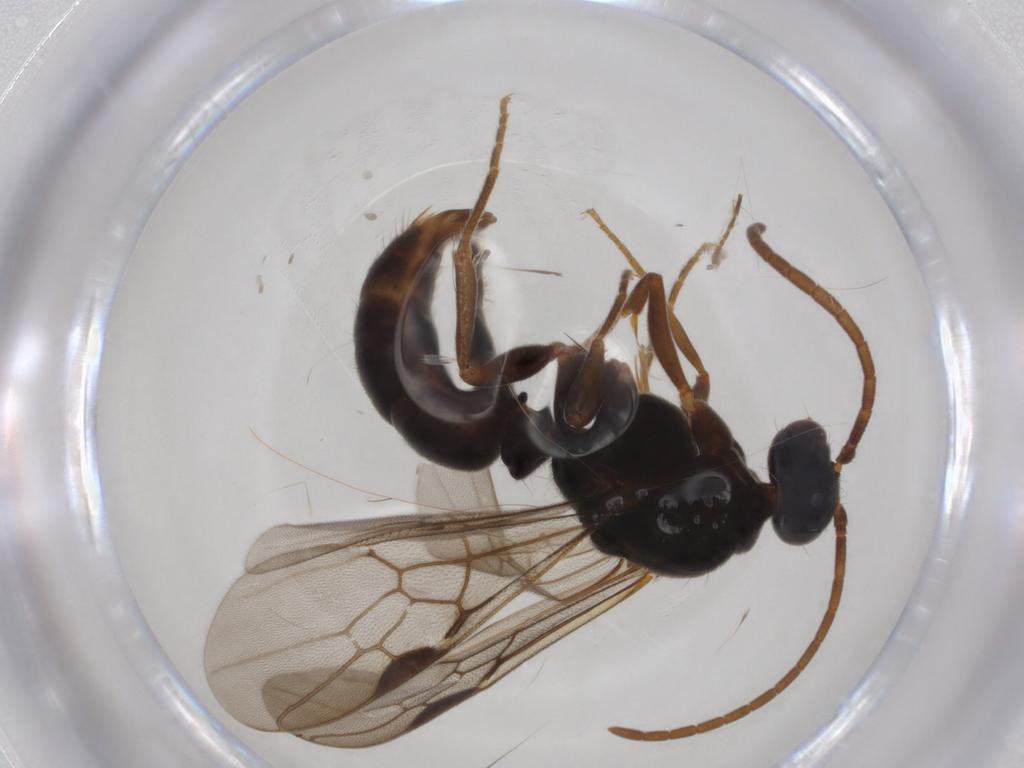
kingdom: Animalia
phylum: Arthropoda
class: Insecta
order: Hymenoptera
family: Formicidae
